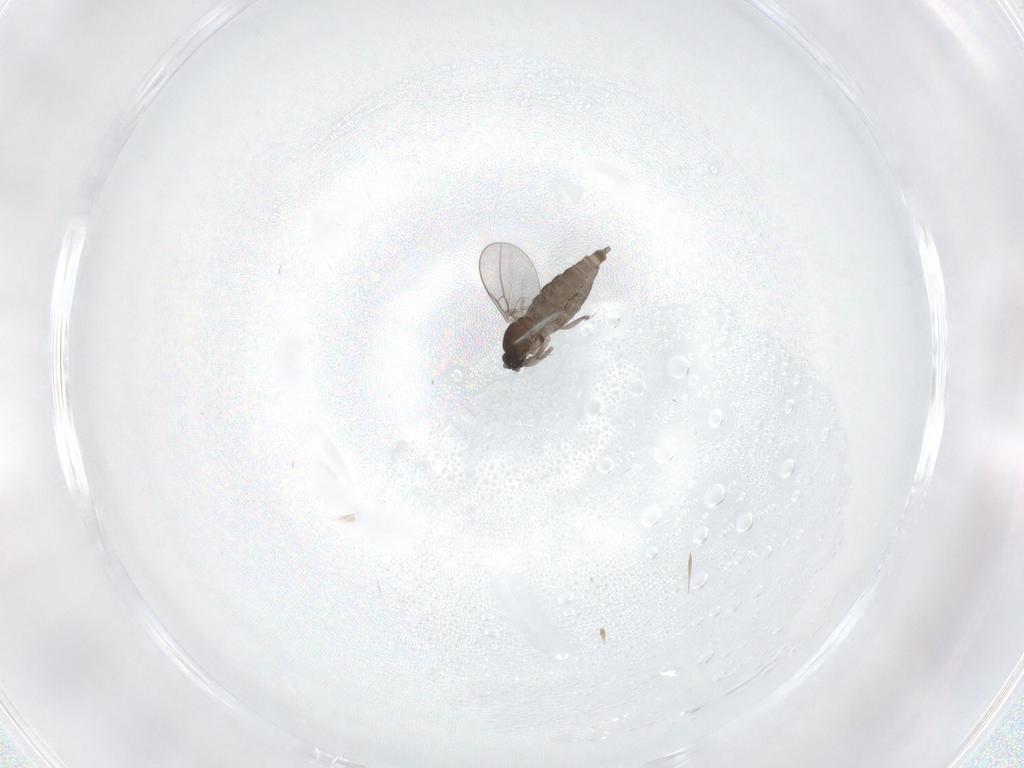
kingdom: Animalia
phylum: Arthropoda
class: Insecta
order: Diptera
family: Cecidomyiidae
